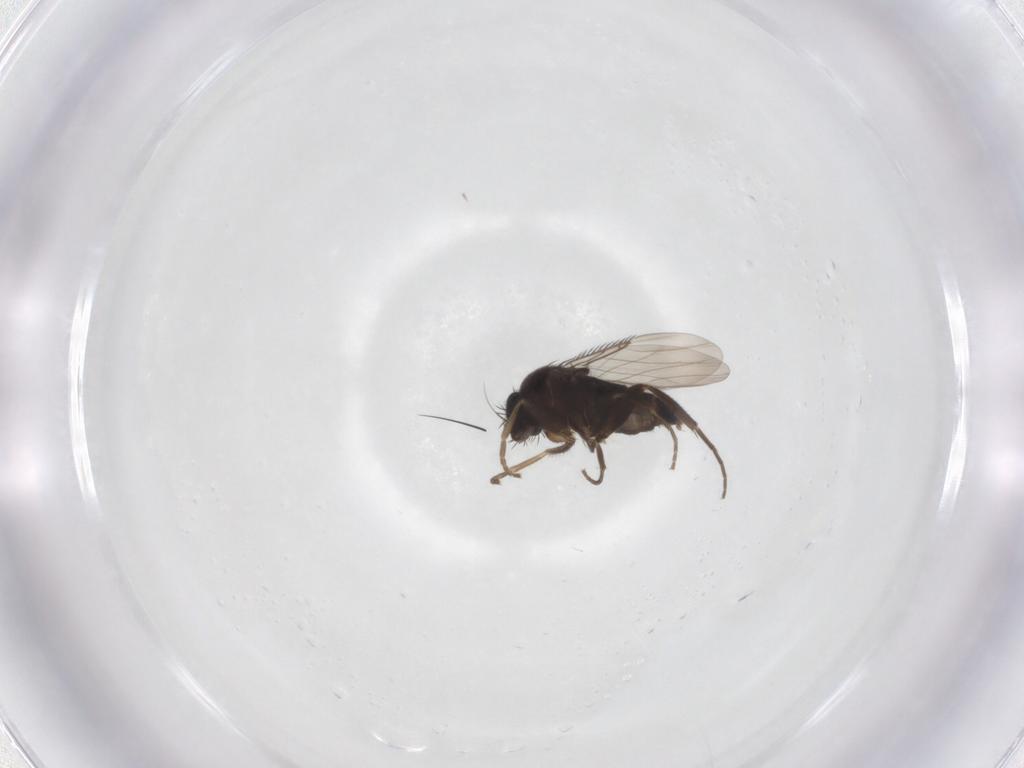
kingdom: Animalia
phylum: Arthropoda
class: Insecta
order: Diptera
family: Phoridae
